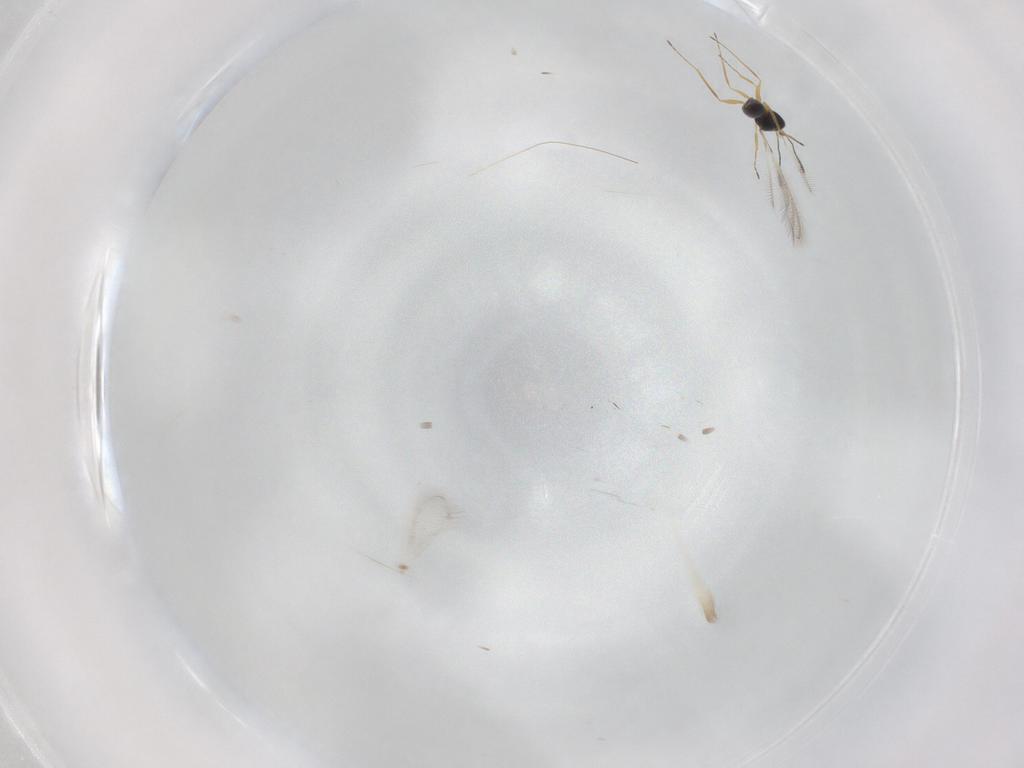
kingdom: Animalia
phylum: Arthropoda
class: Insecta
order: Hymenoptera
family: Mymaridae
